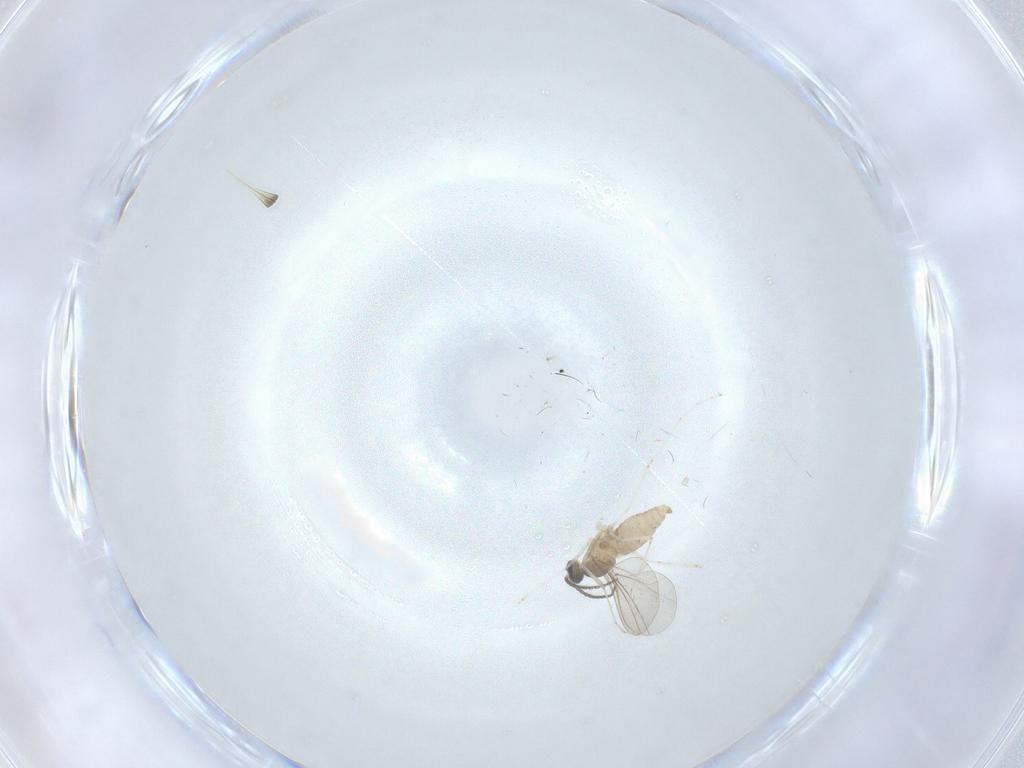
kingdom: Animalia
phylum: Arthropoda
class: Insecta
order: Diptera
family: Cecidomyiidae
